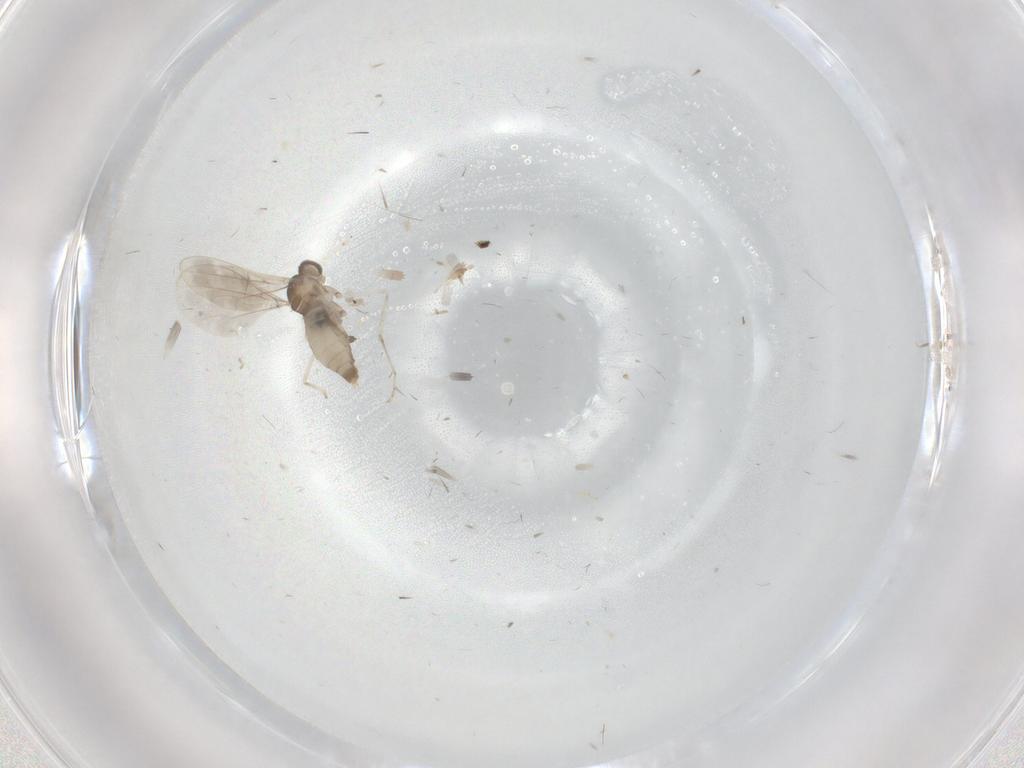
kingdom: Animalia
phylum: Arthropoda
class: Insecta
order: Diptera
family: Cecidomyiidae
